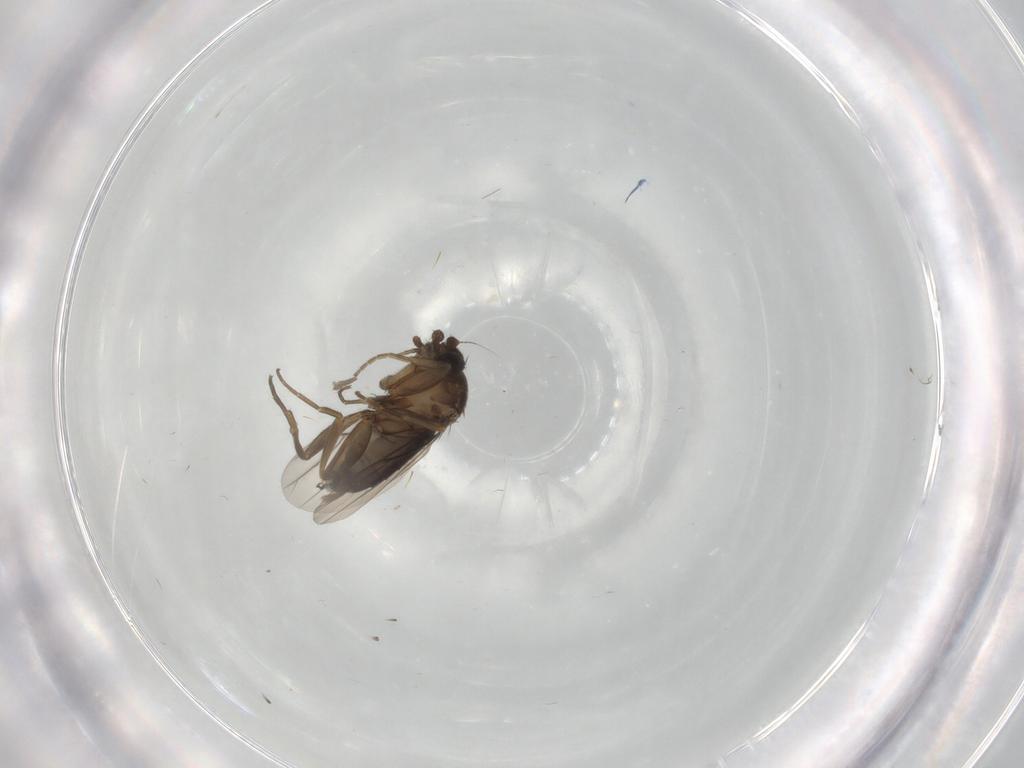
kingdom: Animalia
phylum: Arthropoda
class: Insecta
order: Diptera
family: Phoridae
